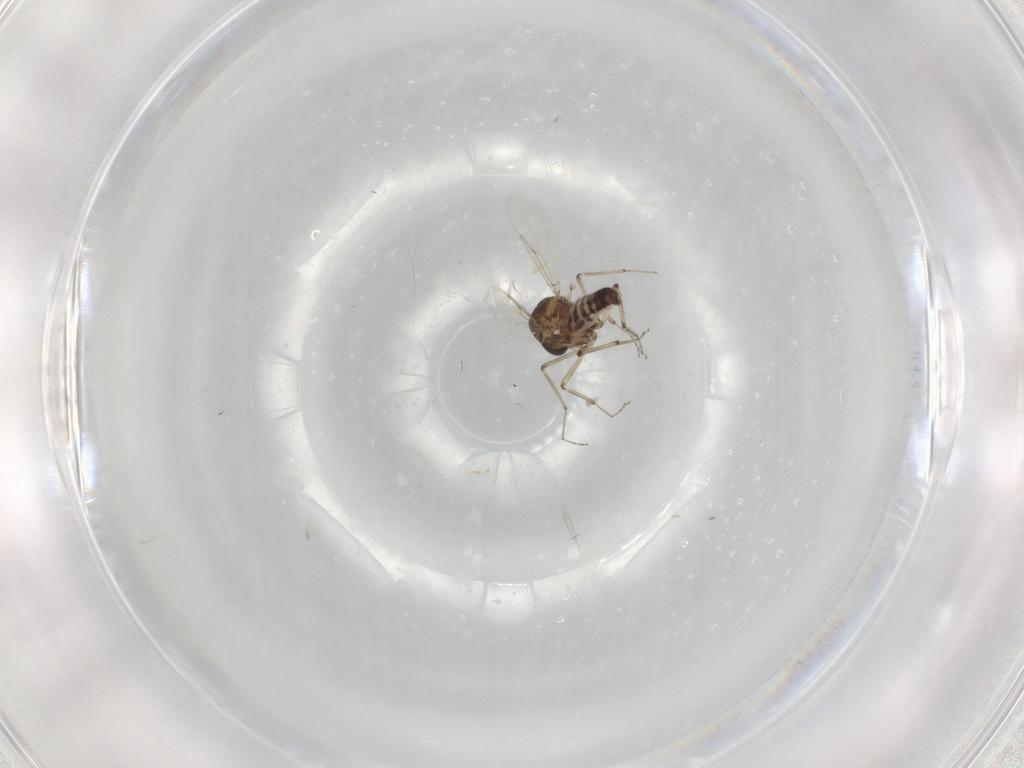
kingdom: Animalia
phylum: Arthropoda
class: Insecta
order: Diptera
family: Ceratopogonidae
